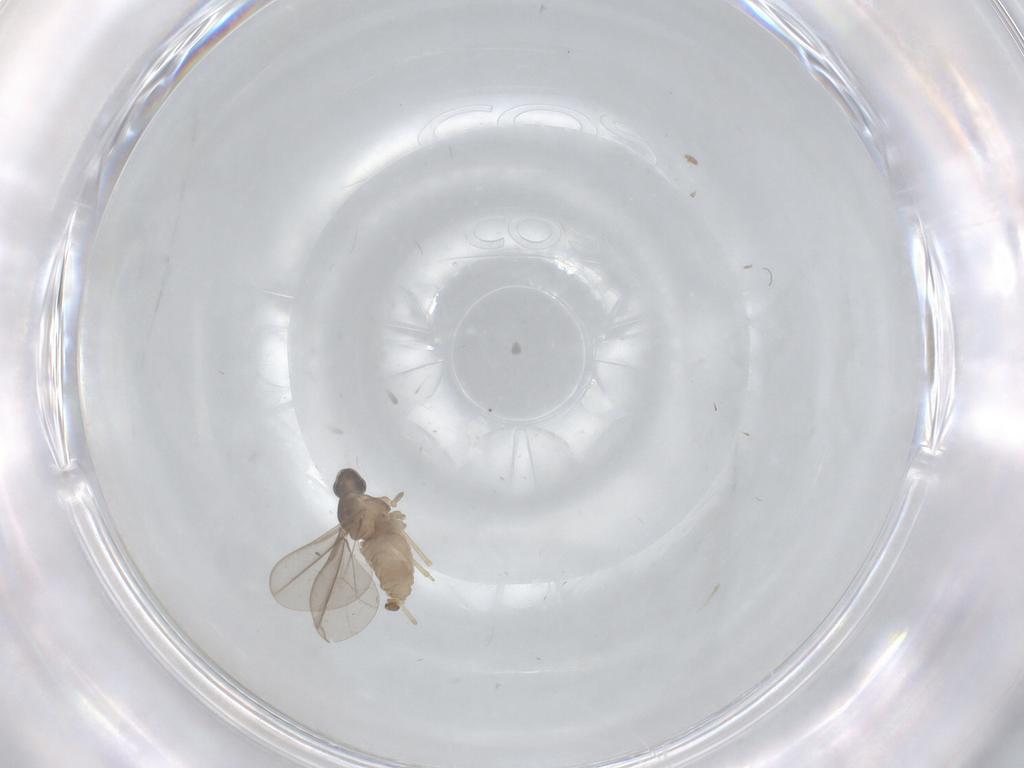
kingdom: Animalia
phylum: Arthropoda
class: Insecta
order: Diptera
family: Cecidomyiidae
